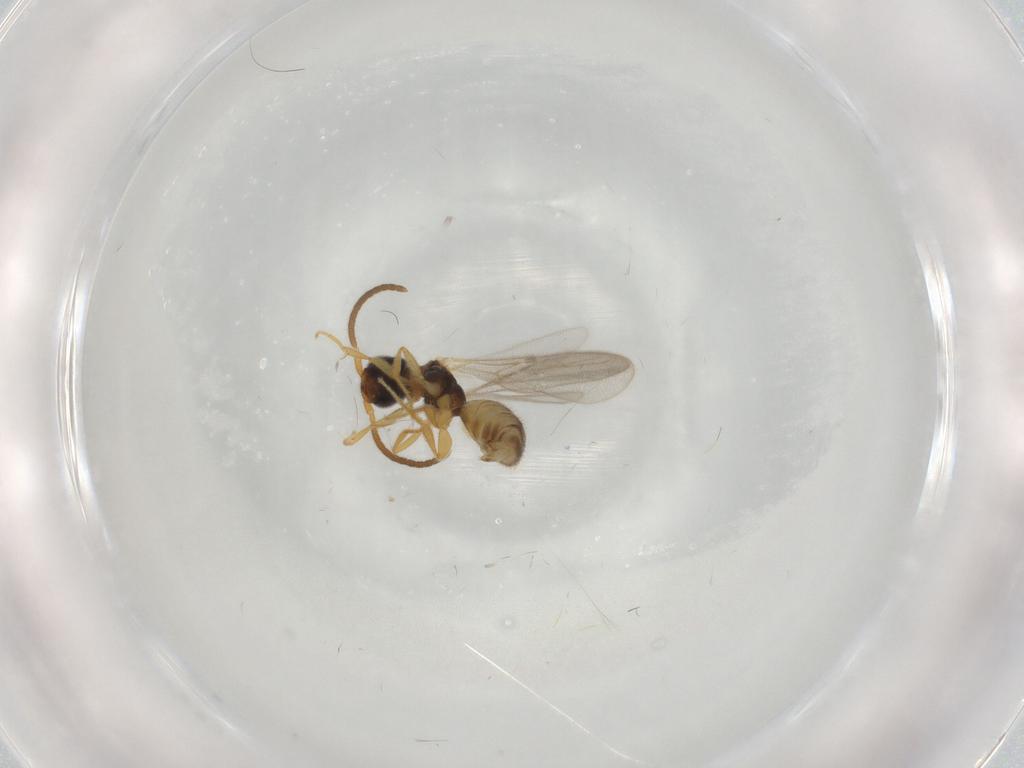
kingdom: Animalia
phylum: Arthropoda
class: Insecta
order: Hymenoptera
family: Bethylidae
